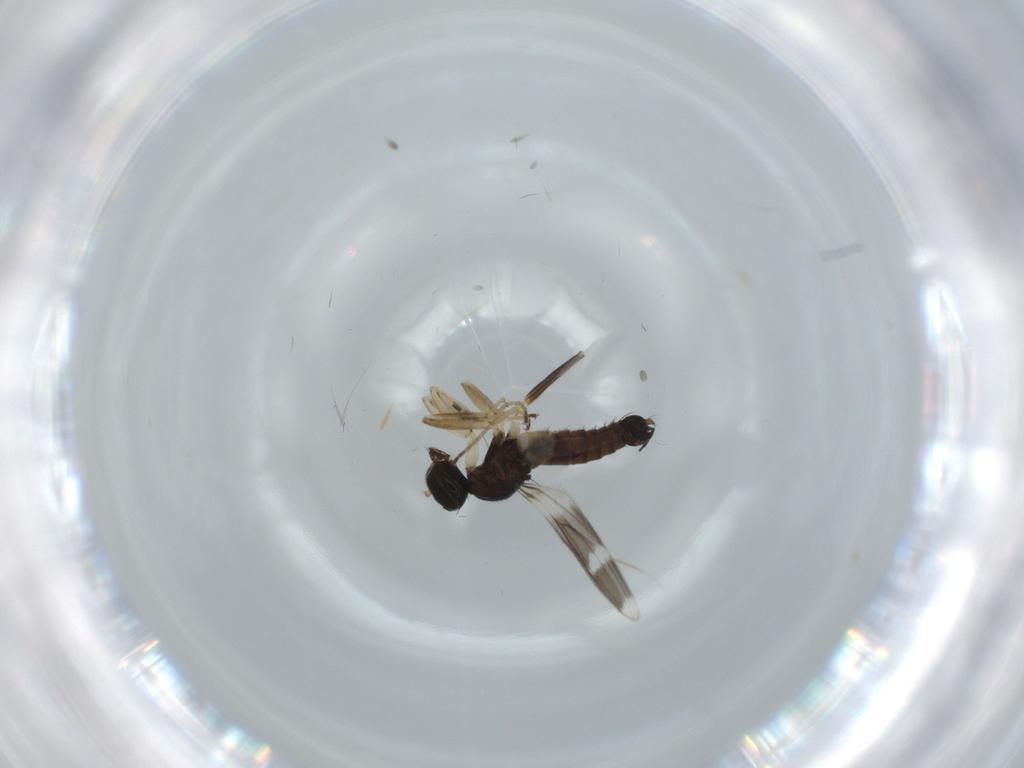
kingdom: Animalia
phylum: Arthropoda
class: Insecta
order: Diptera
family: Hybotidae
